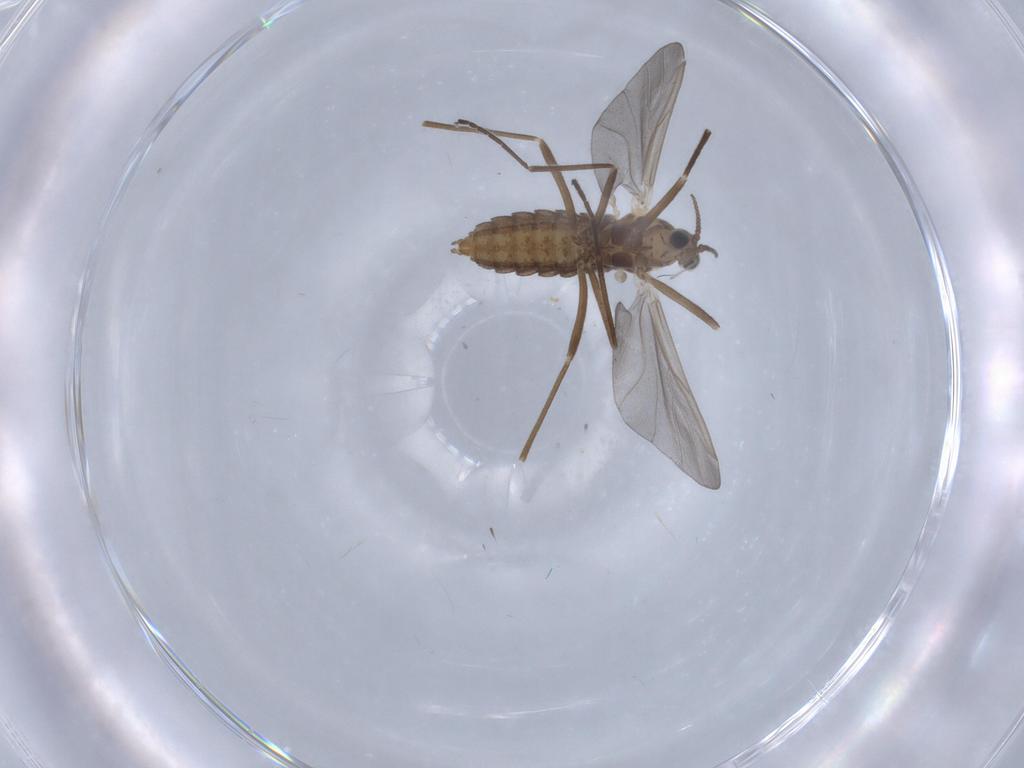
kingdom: Animalia
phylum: Arthropoda
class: Insecta
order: Diptera
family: Cecidomyiidae
